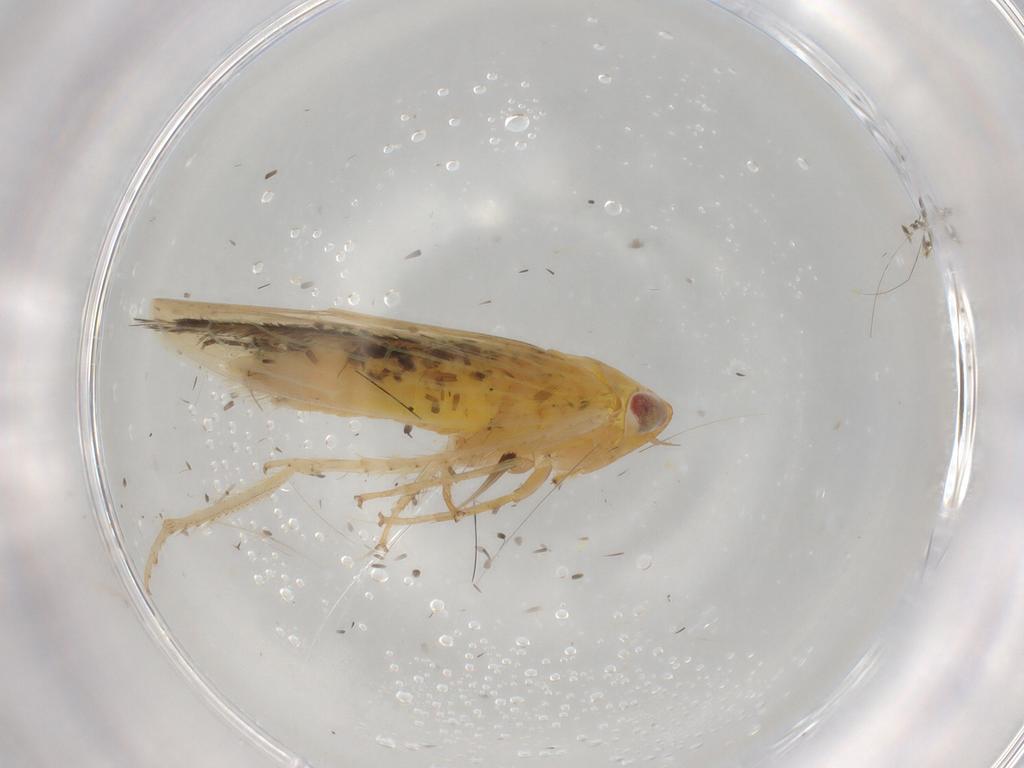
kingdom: Animalia
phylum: Arthropoda
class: Insecta
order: Hemiptera
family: Cicadellidae
